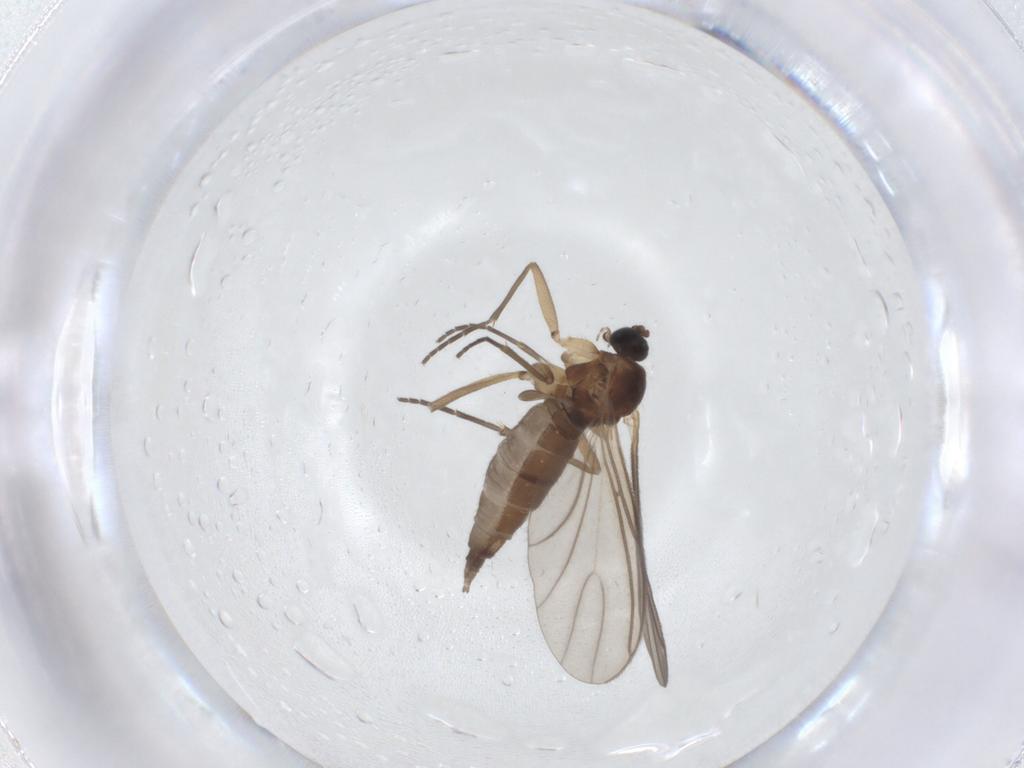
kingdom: Animalia
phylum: Arthropoda
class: Insecta
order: Diptera
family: Sciaridae
